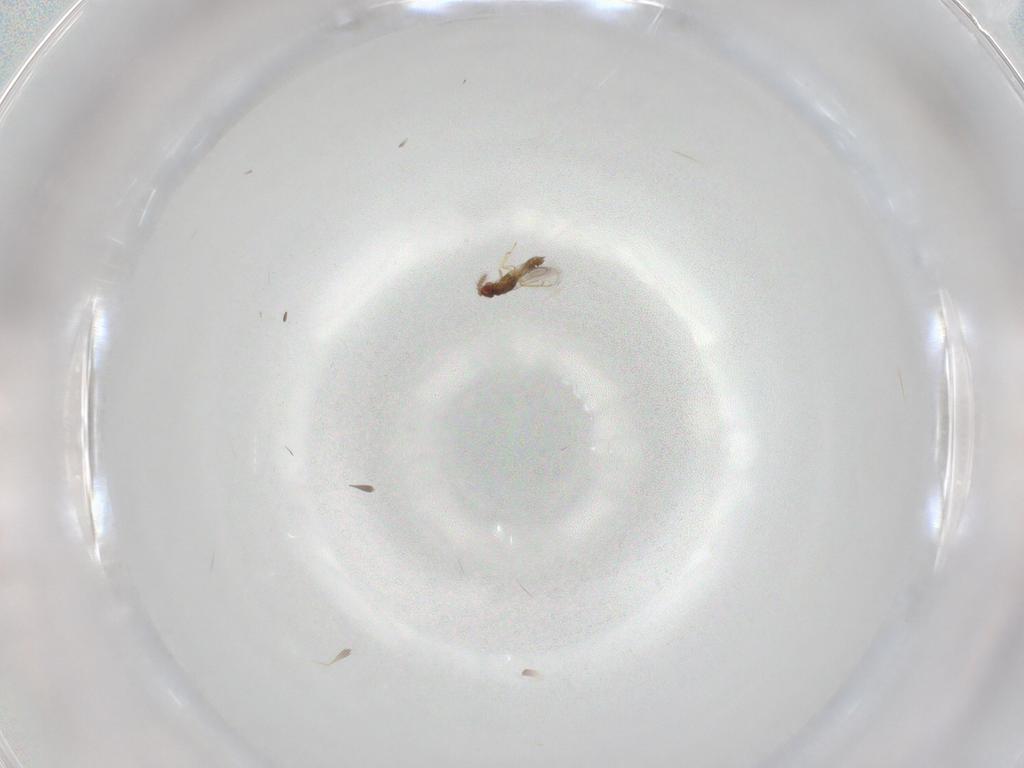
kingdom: Animalia
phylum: Arthropoda
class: Insecta
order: Hymenoptera
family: Eulophidae
